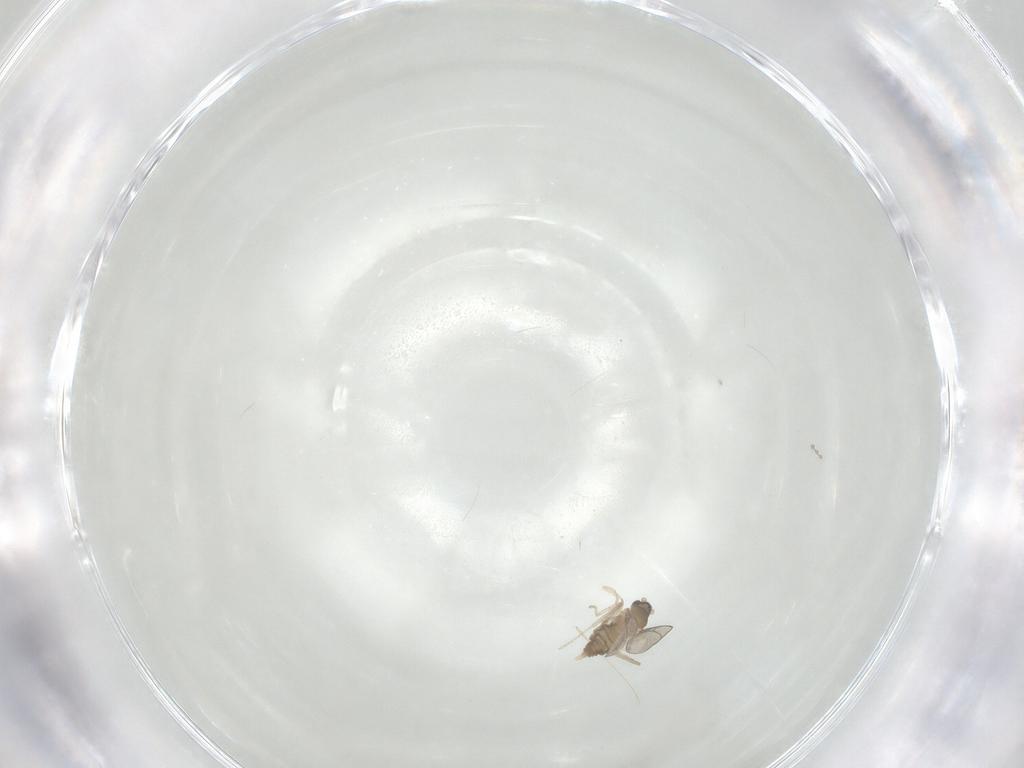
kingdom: Animalia
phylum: Arthropoda
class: Insecta
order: Diptera
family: Chironomidae
